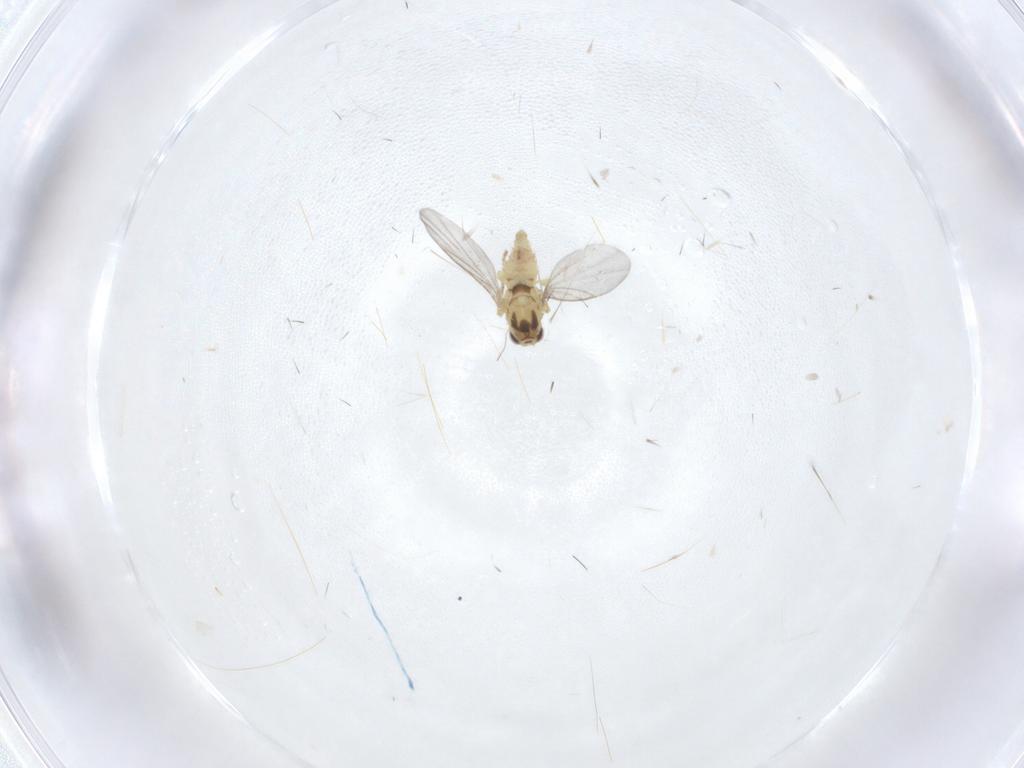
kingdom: Animalia
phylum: Arthropoda
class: Insecta
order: Diptera
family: Agromyzidae
